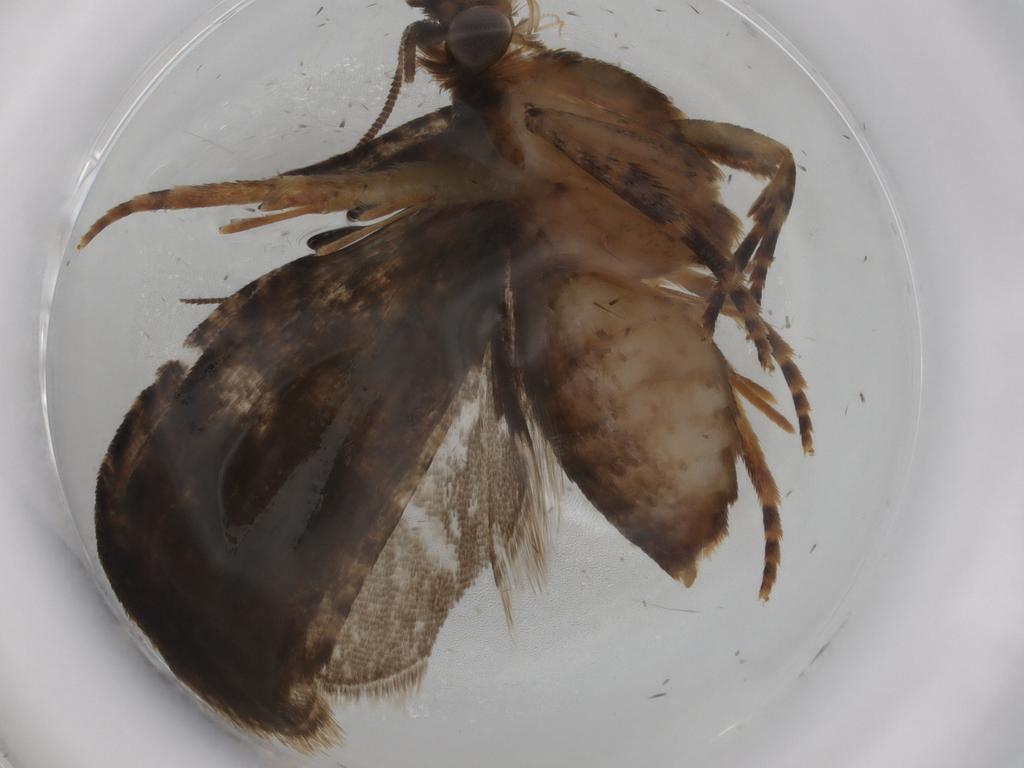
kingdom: Animalia
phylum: Arthropoda
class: Insecta
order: Lepidoptera
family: Tortricidae
